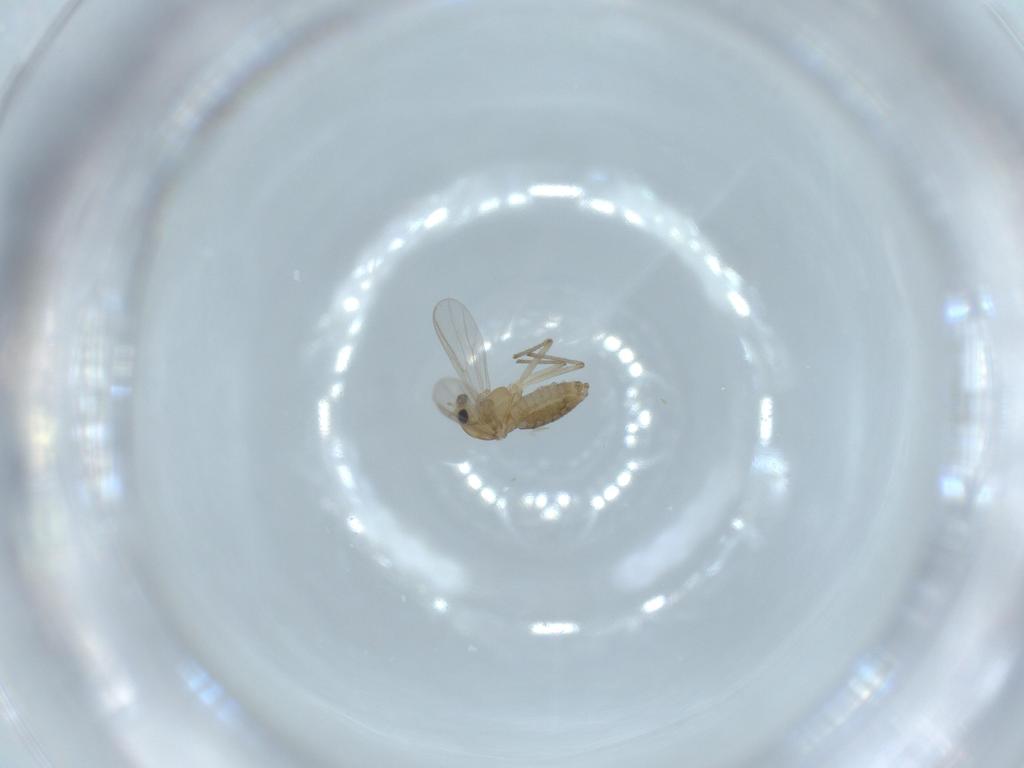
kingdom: Animalia
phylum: Arthropoda
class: Insecta
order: Diptera
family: Chironomidae
